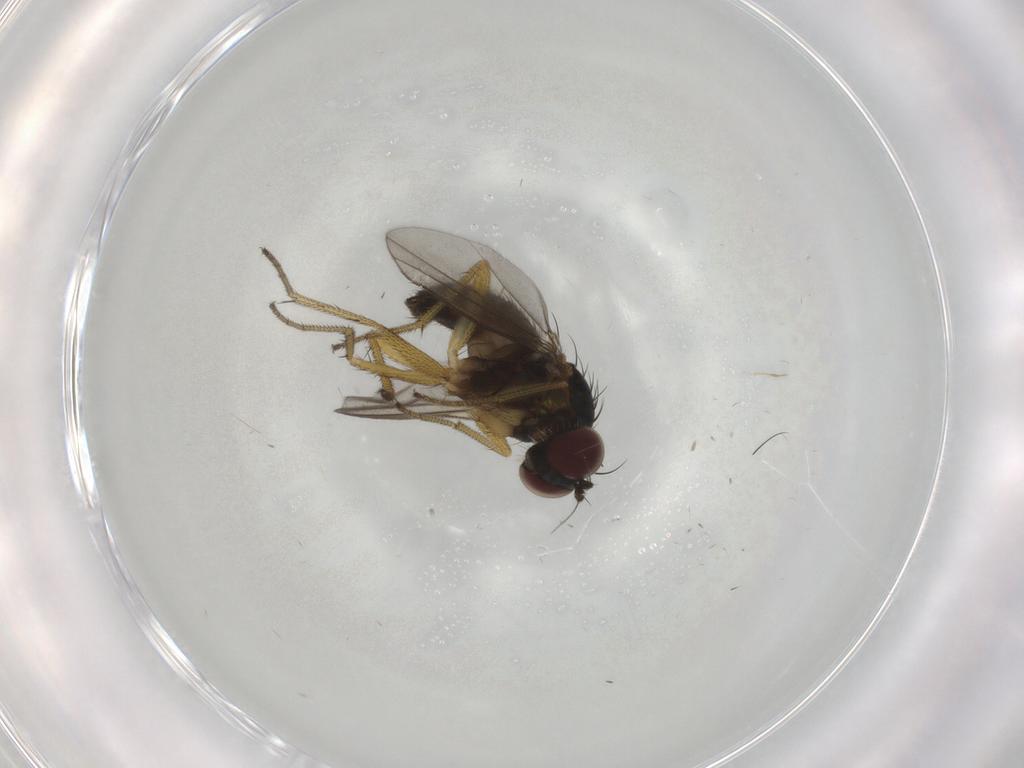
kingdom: Animalia
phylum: Arthropoda
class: Insecta
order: Diptera
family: Dolichopodidae
